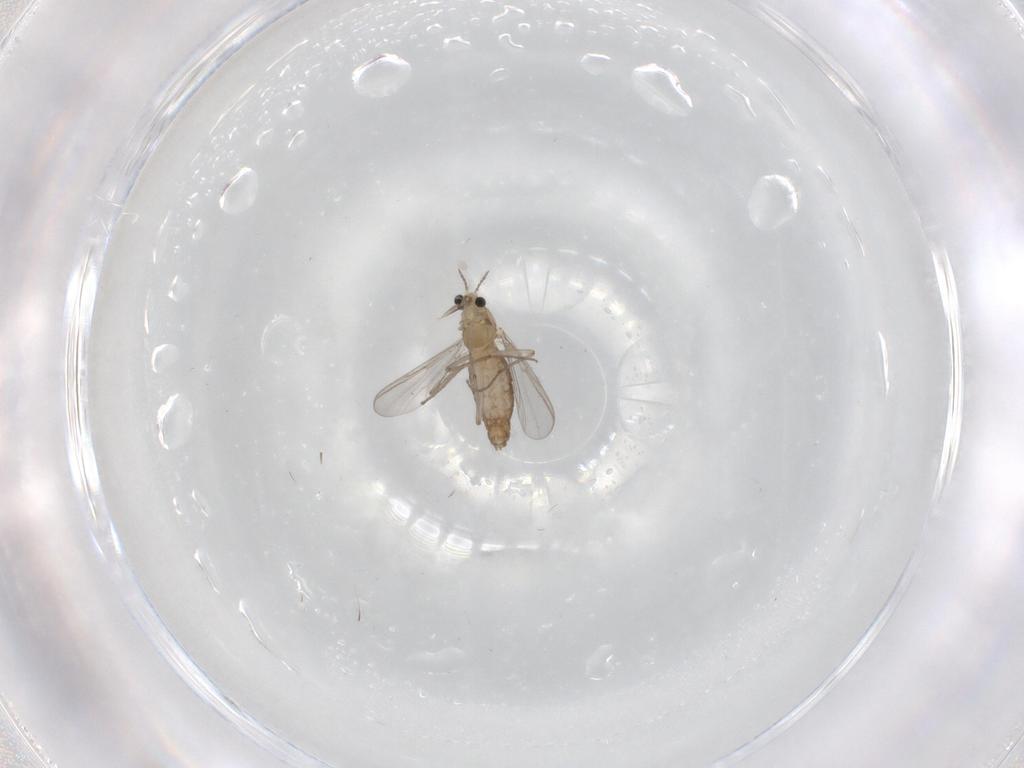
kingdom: Animalia
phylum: Arthropoda
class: Insecta
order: Diptera
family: Chironomidae
